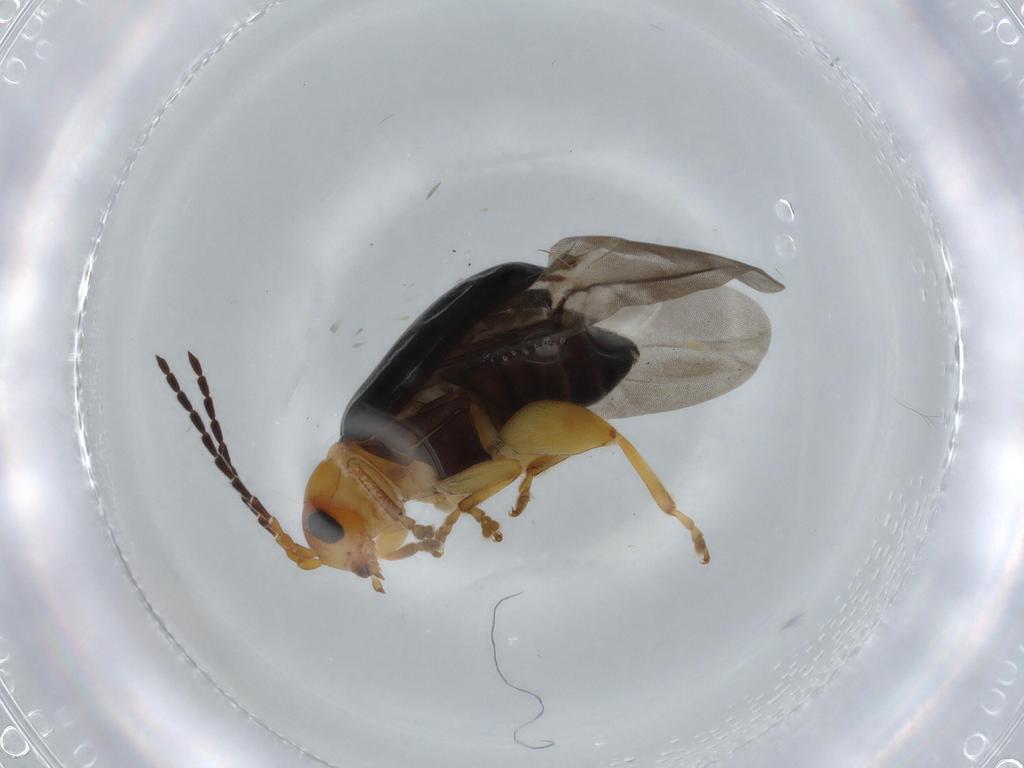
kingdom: Animalia
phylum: Arthropoda
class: Insecta
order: Coleoptera
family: Chrysomelidae
